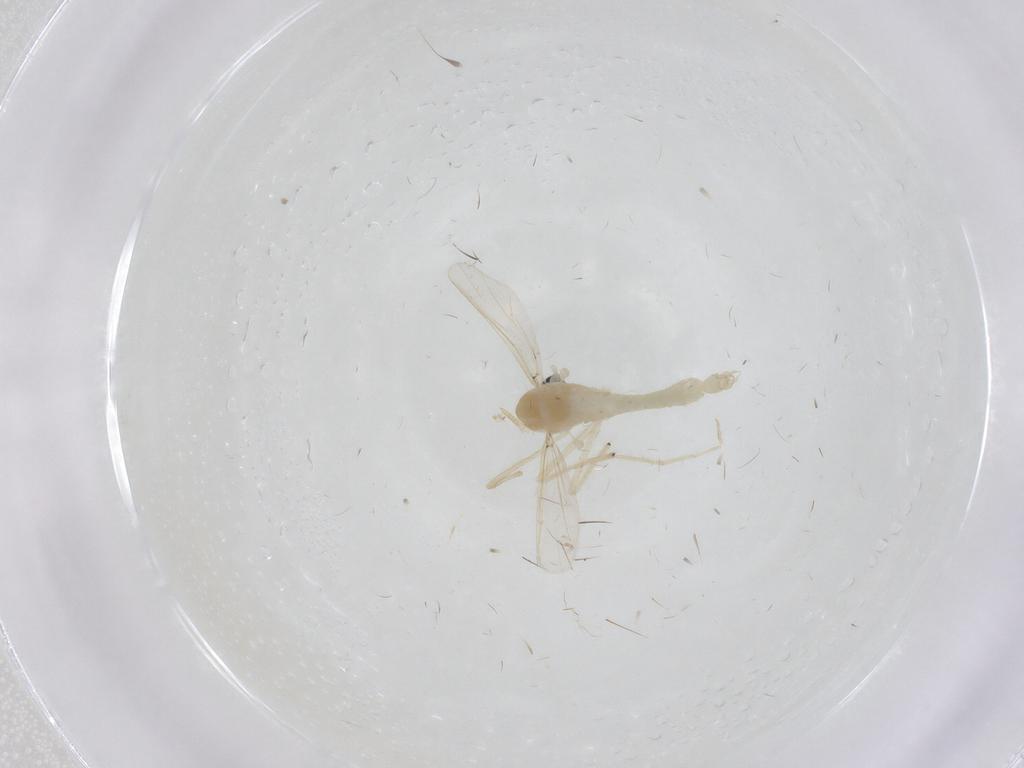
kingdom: Animalia
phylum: Arthropoda
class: Insecta
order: Diptera
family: Chironomidae
